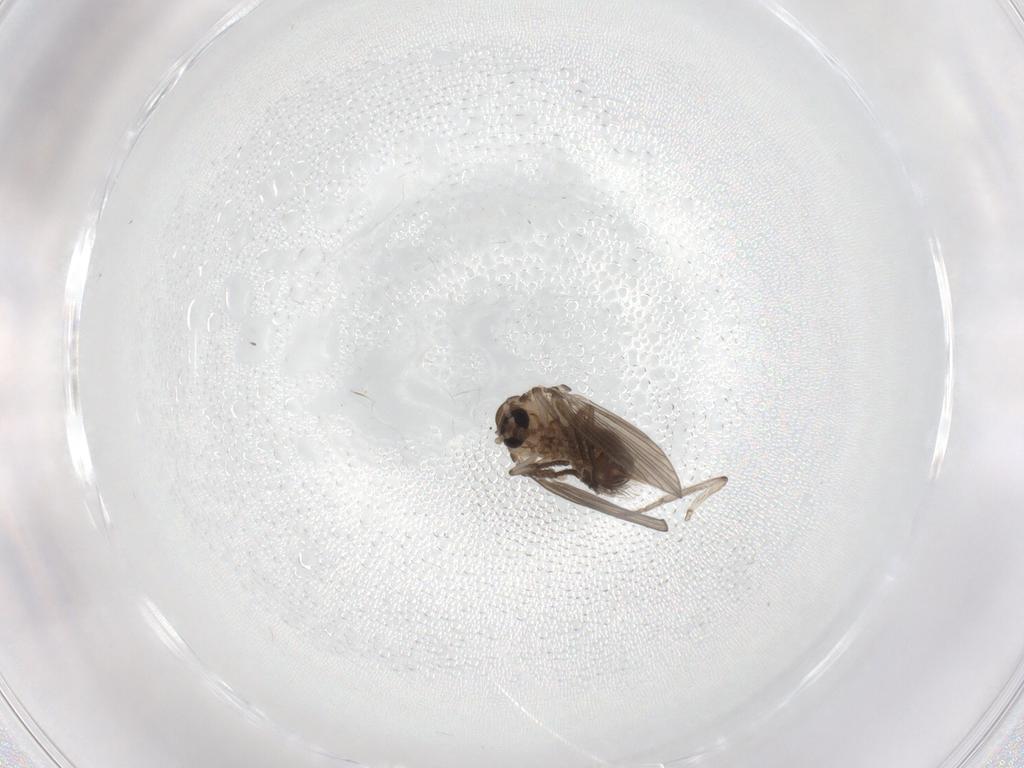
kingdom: Animalia
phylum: Arthropoda
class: Insecta
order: Diptera
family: Psychodidae
